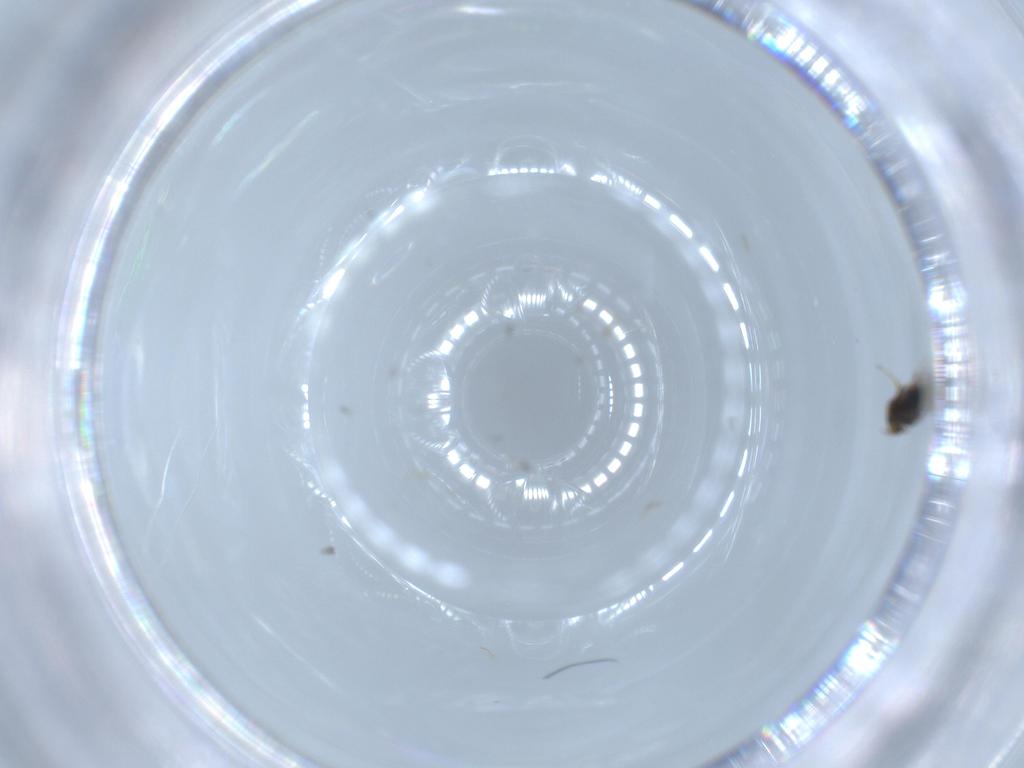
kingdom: Animalia
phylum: Arthropoda
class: Insecta
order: Hymenoptera
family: Platygastridae
